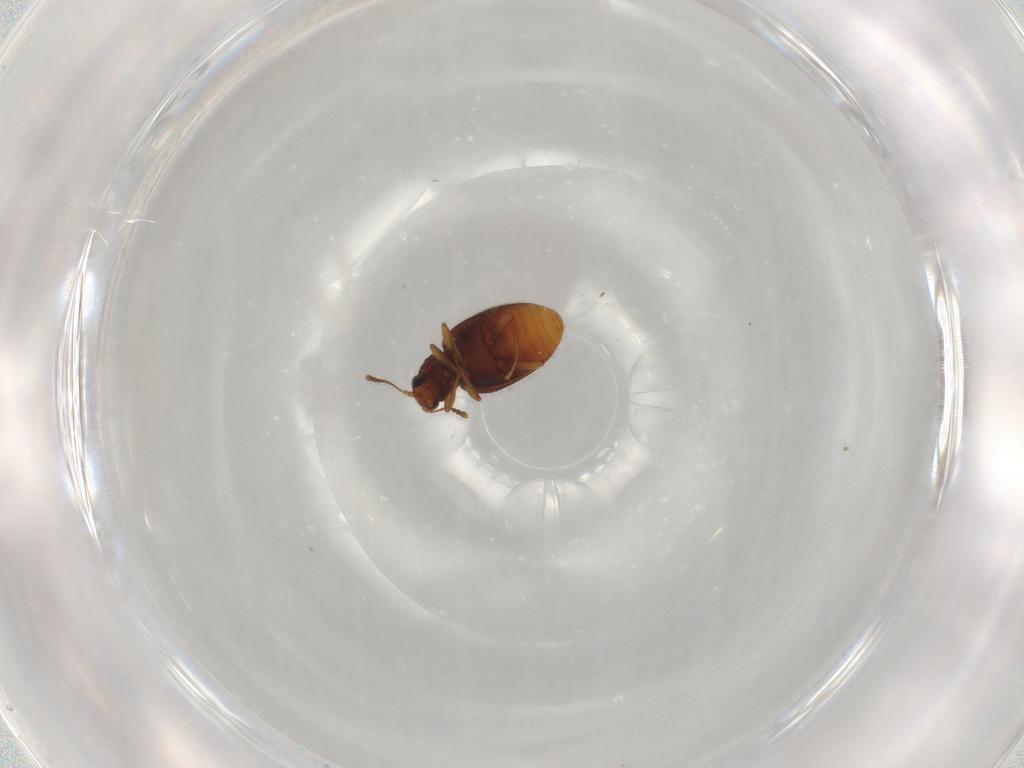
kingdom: Animalia
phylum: Arthropoda
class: Insecta
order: Coleoptera
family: Latridiidae
